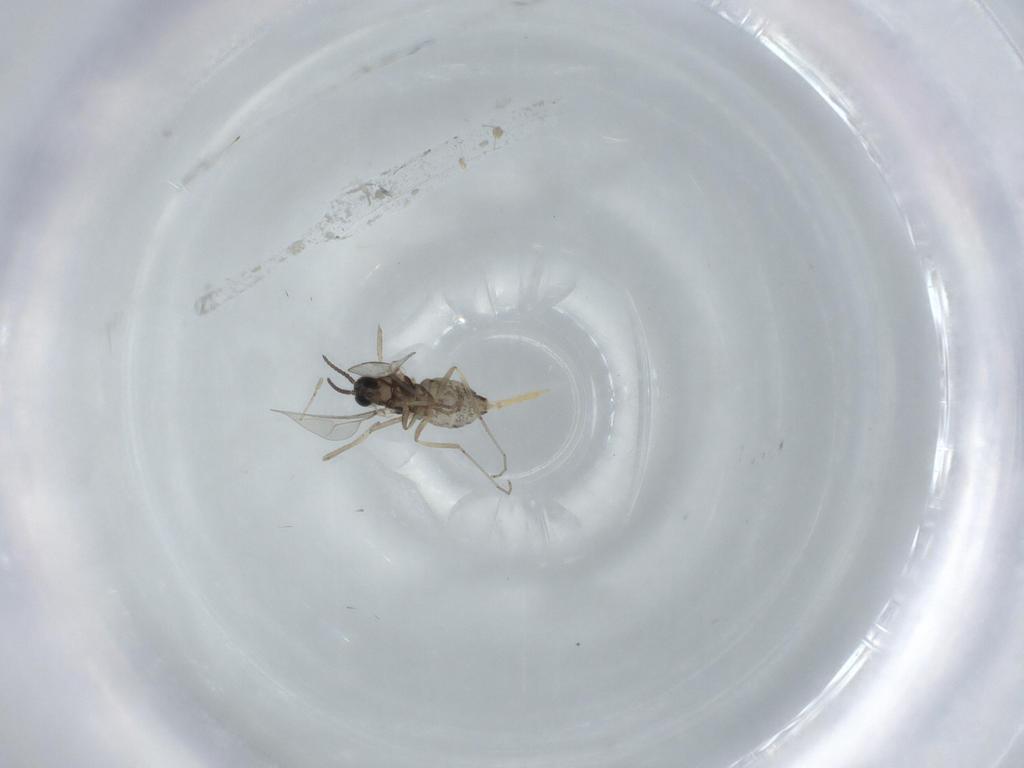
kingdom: Animalia
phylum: Arthropoda
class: Insecta
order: Diptera
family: Cecidomyiidae
